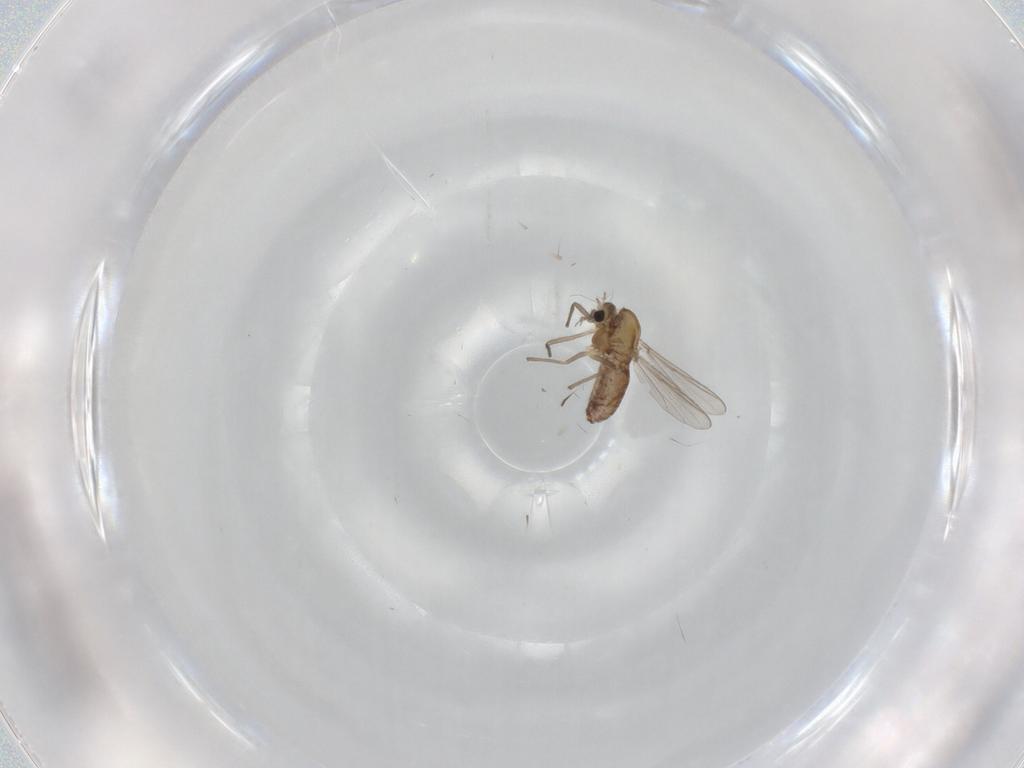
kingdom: Animalia
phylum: Arthropoda
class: Insecta
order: Diptera
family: Chironomidae
